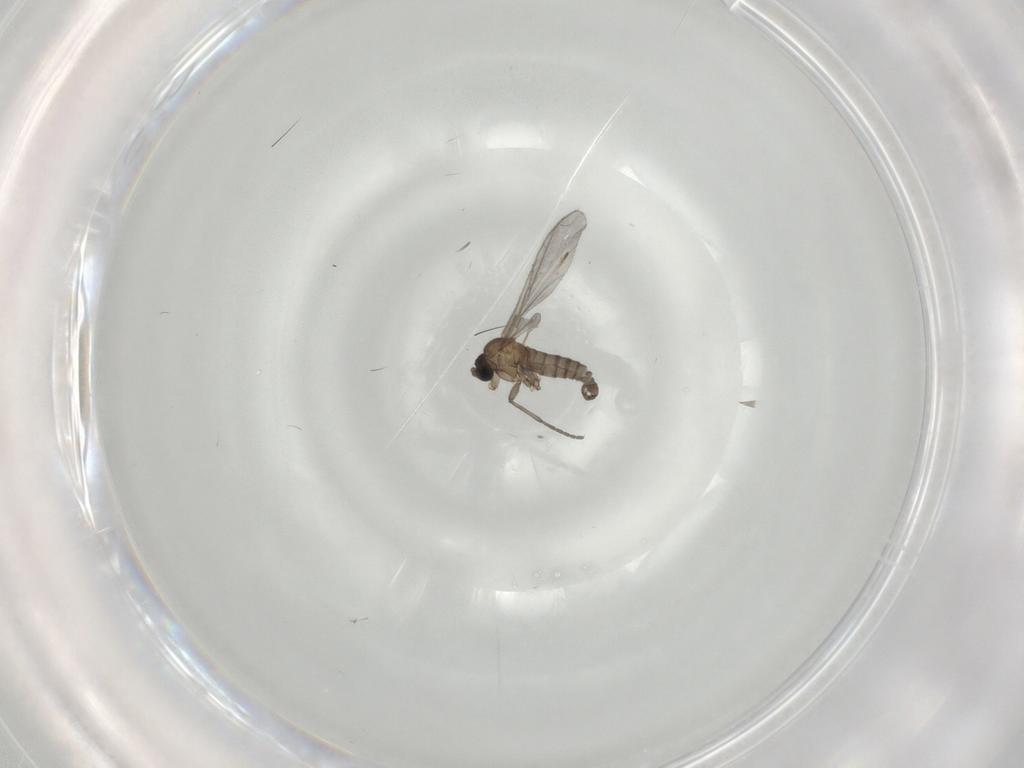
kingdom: Animalia
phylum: Arthropoda
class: Insecta
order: Diptera
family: Sciaridae
